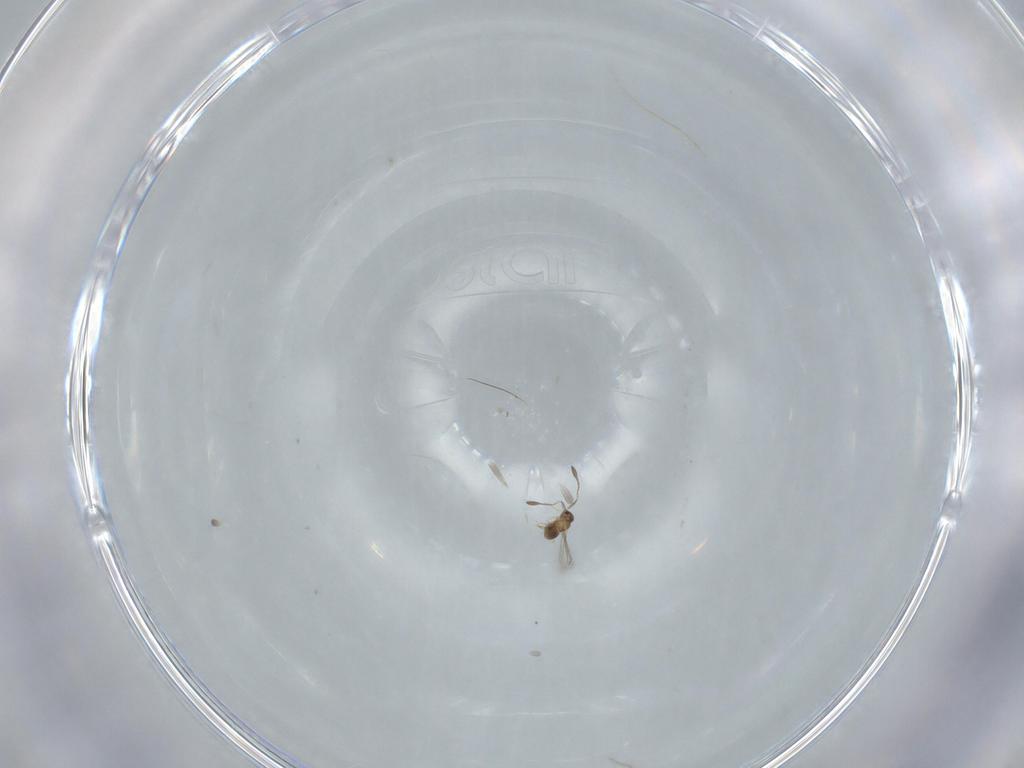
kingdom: Animalia
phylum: Arthropoda
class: Insecta
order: Hymenoptera
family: Mymaridae
